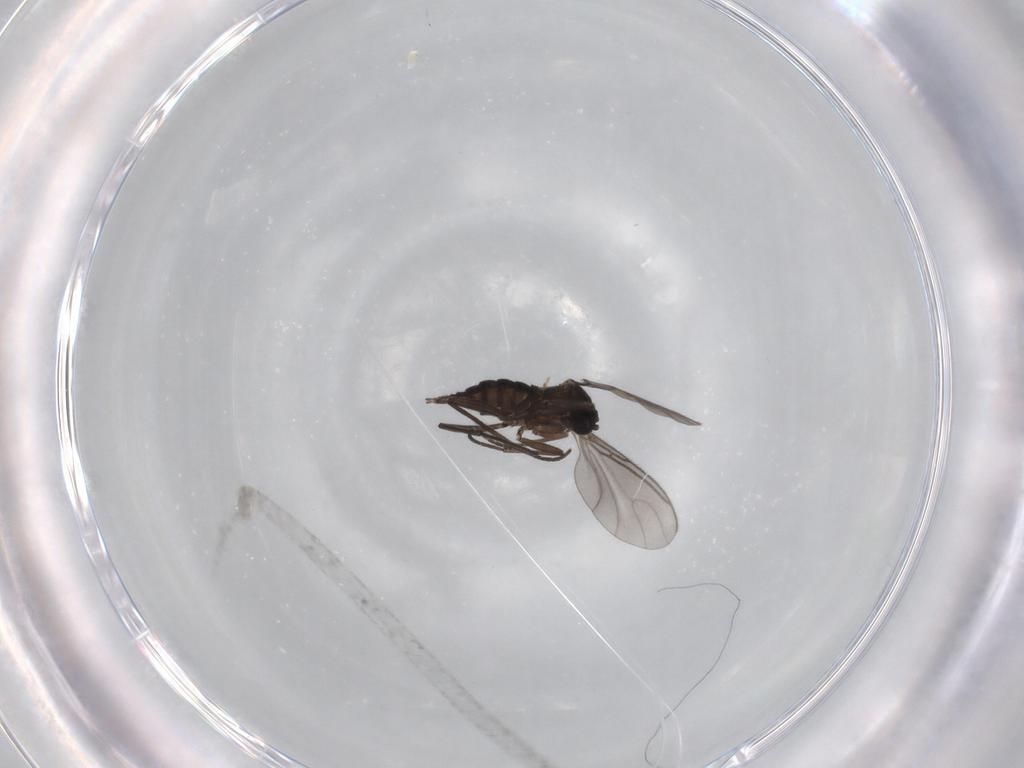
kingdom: Animalia
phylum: Arthropoda
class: Insecta
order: Diptera
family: Sciaridae
